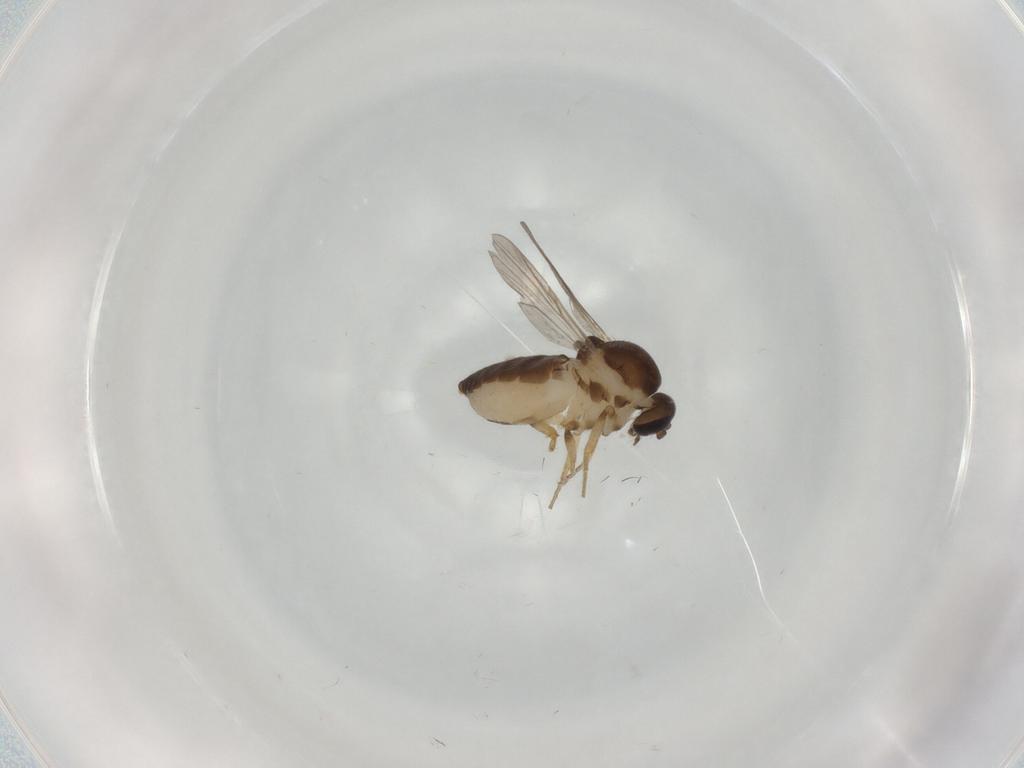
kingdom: Animalia
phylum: Arthropoda
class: Insecta
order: Diptera
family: Ceratopogonidae
